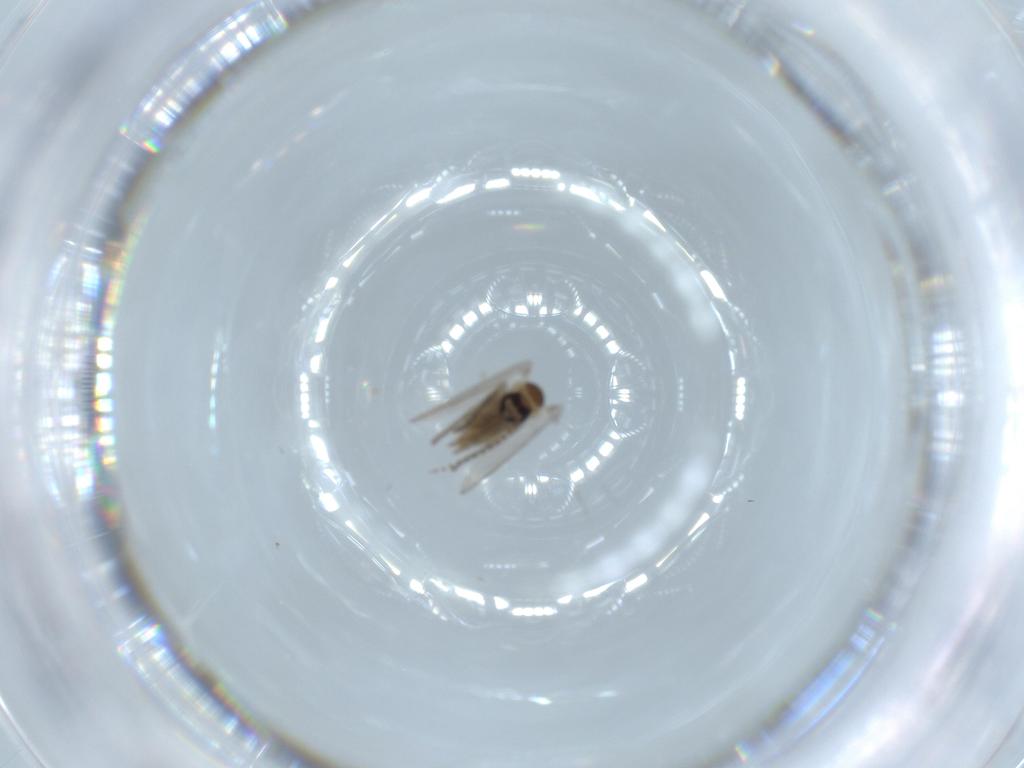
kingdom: Animalia
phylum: Arthropoda
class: Insecta
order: Diptera
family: Psychodidae
